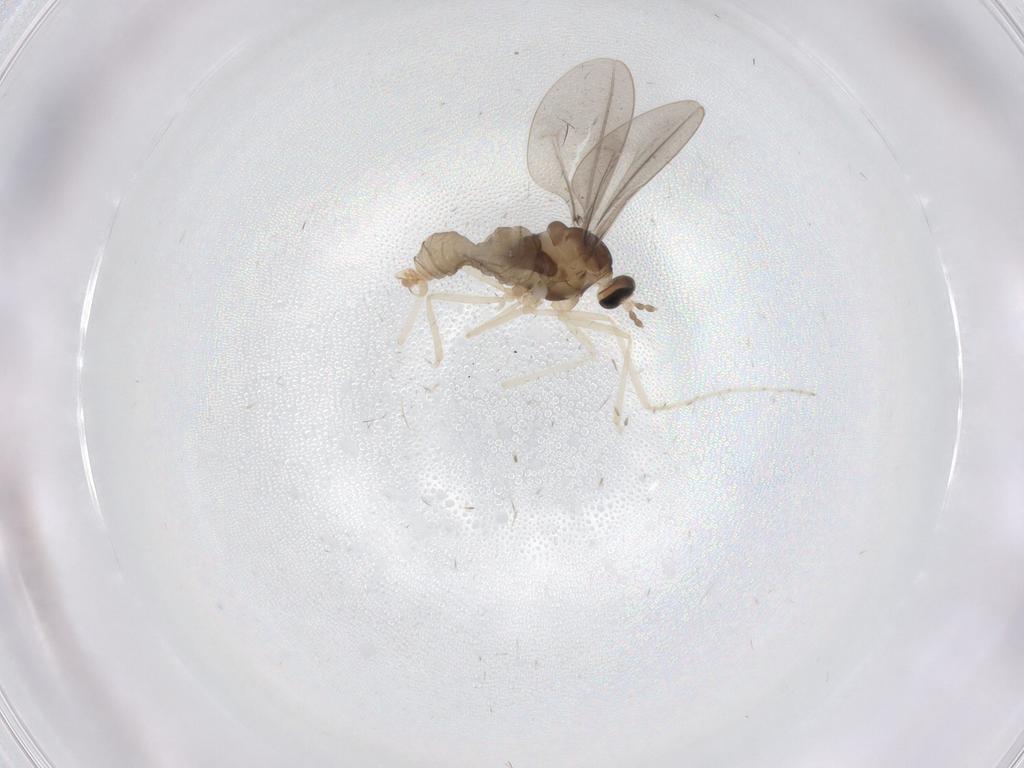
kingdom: Animalia
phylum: Arthropoda
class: Insecta
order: Diptera
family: Cecidomyiidae
